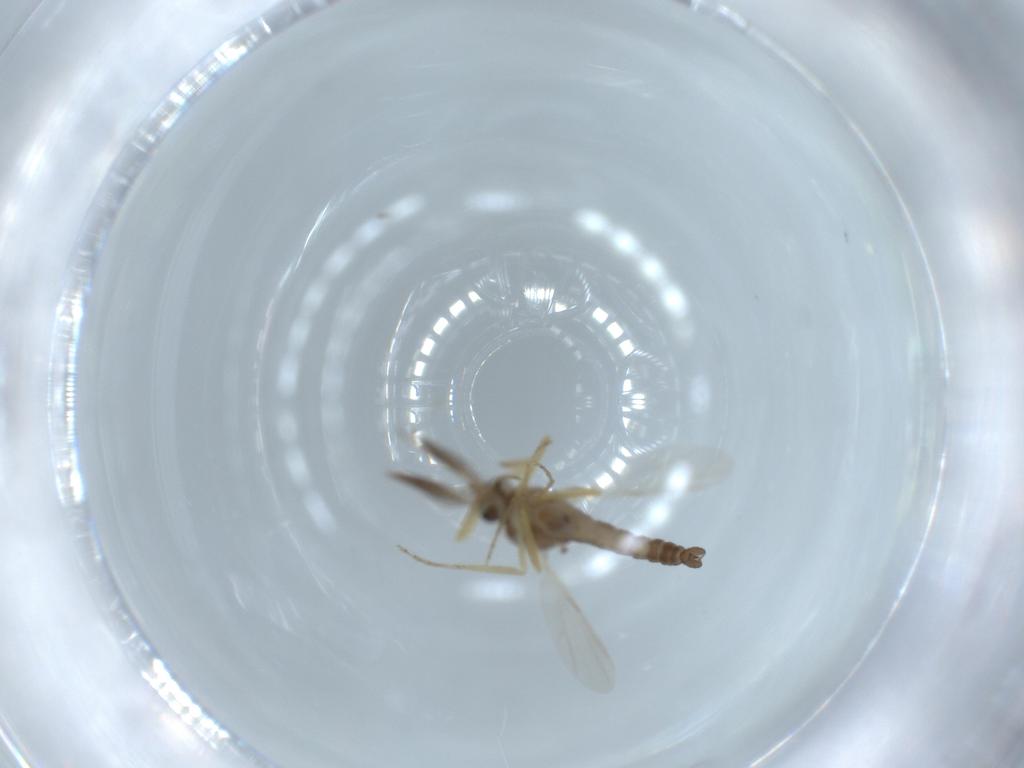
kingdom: Animalia
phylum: Arthropoda
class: Insecta
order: Diptera
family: Ceratopogonidae
